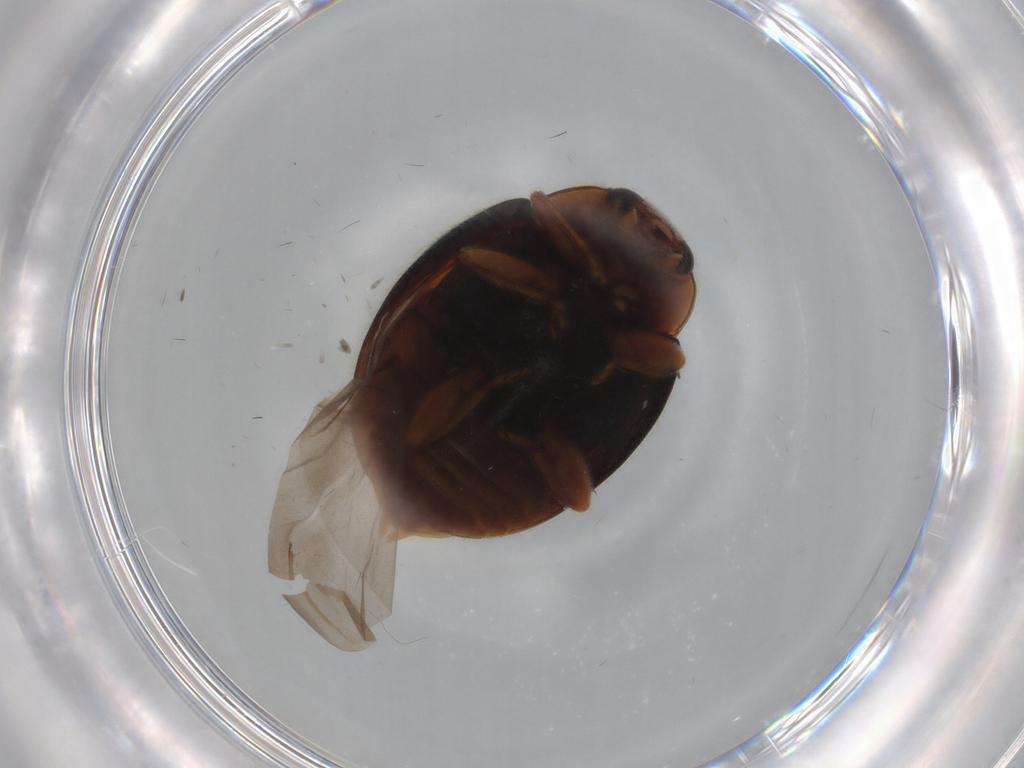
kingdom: Animalia
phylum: Arthropoda
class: Insecta
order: Coleoptera
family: Coccinellidae
